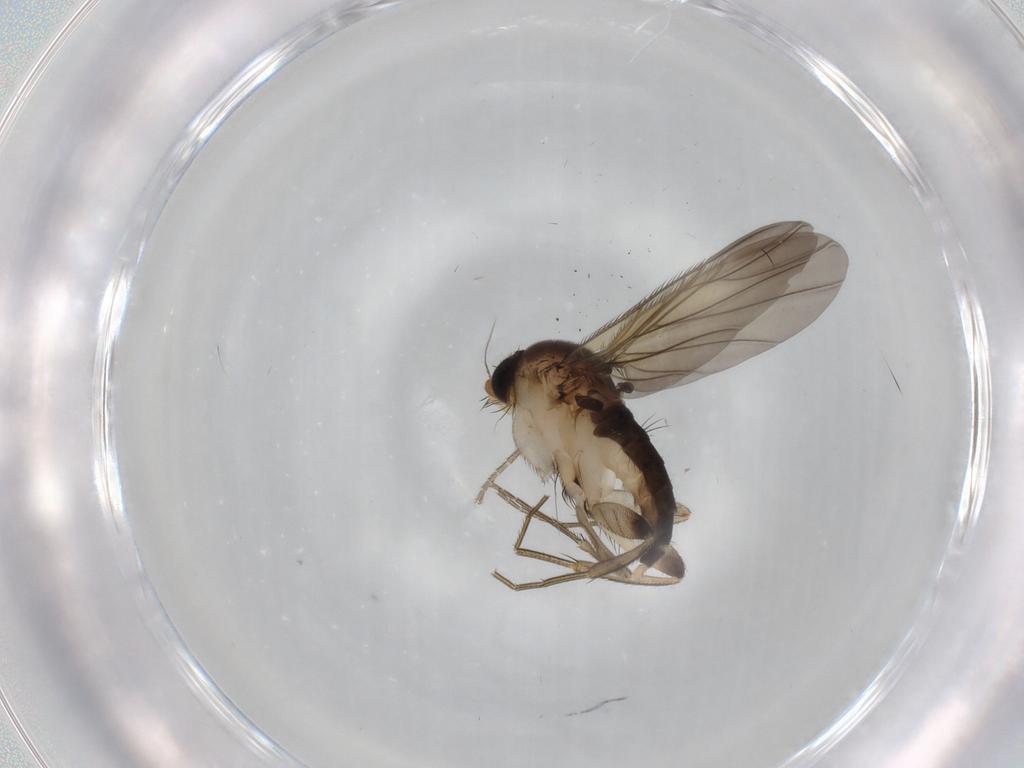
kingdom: Animalia
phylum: Arthropoda
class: Insecta
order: Diptera
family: Phoridae
